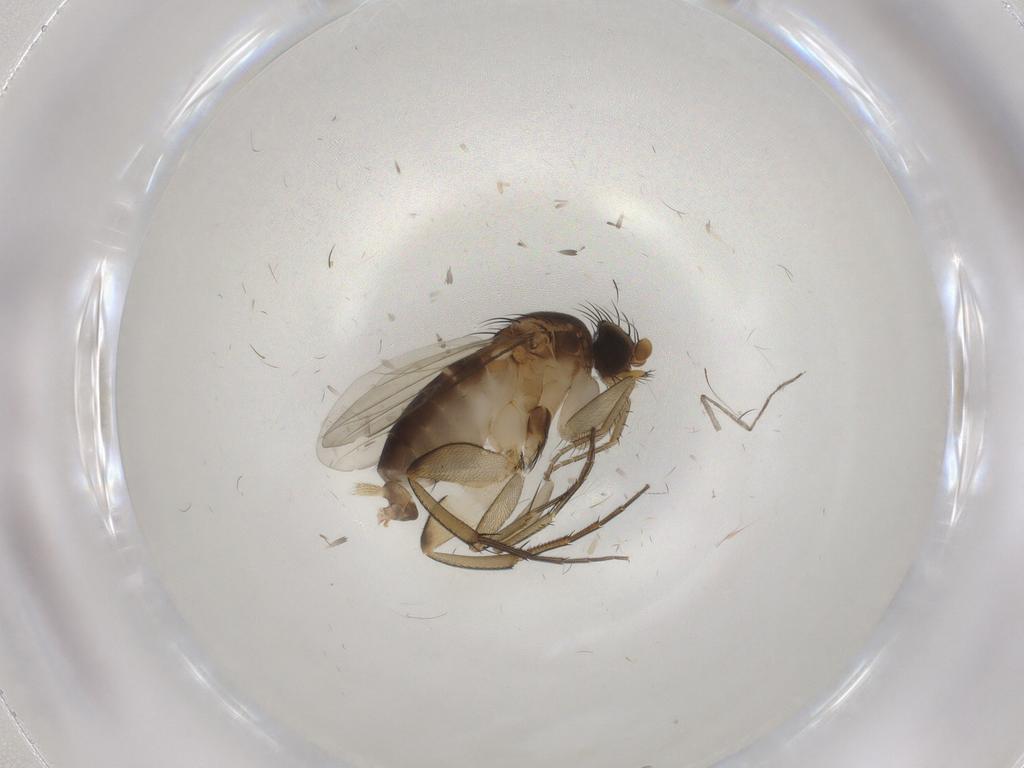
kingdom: Animalia
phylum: Arthropoda
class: Insecta
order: Diptera
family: Phoridae
